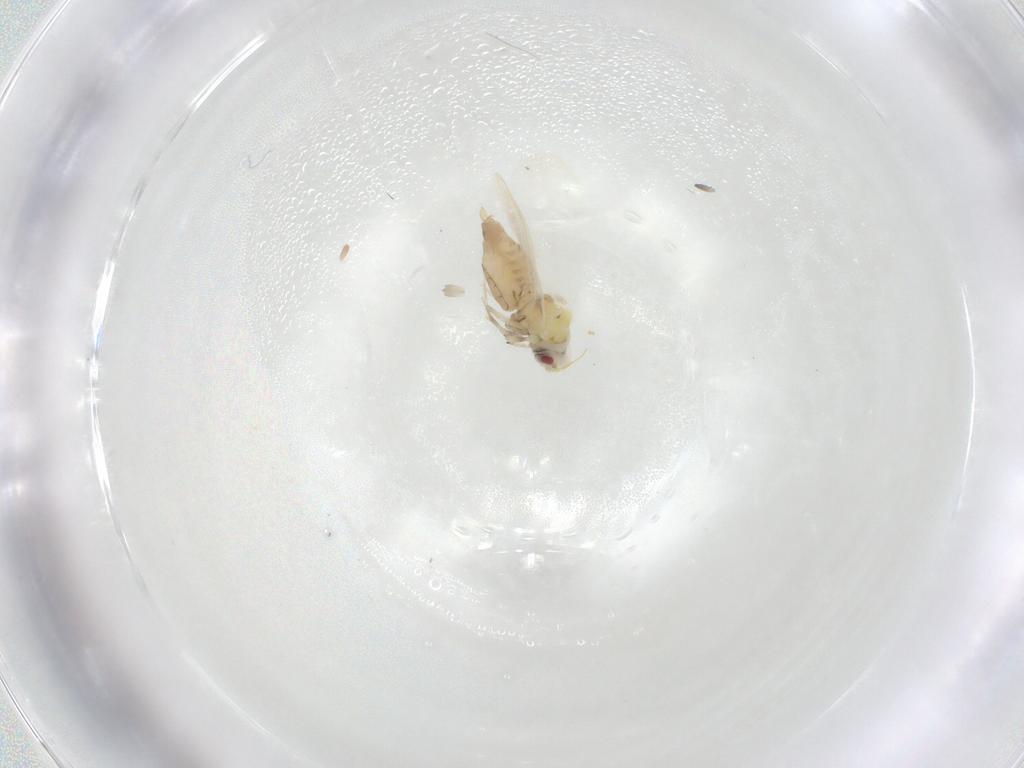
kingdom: Animalia
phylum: Arthropoda
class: Insecta
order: Hemiptera
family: Aleyrodidae
